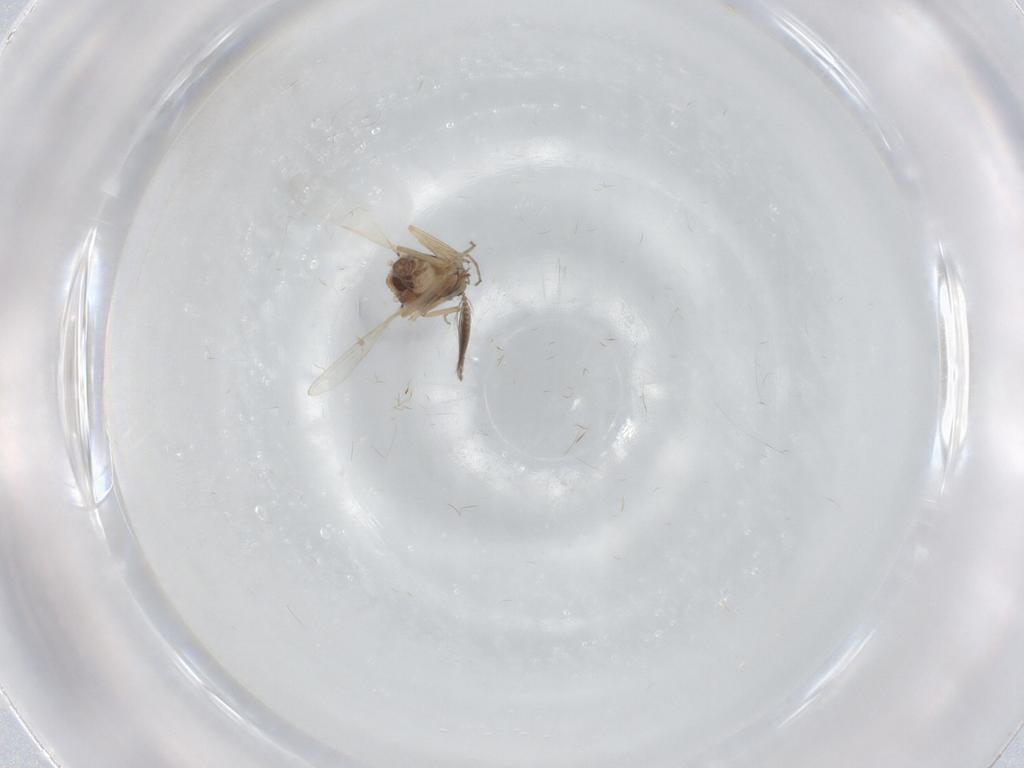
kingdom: Animalia
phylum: Arthropoda
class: Insecta
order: Diptera
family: Ceratopogonidae
